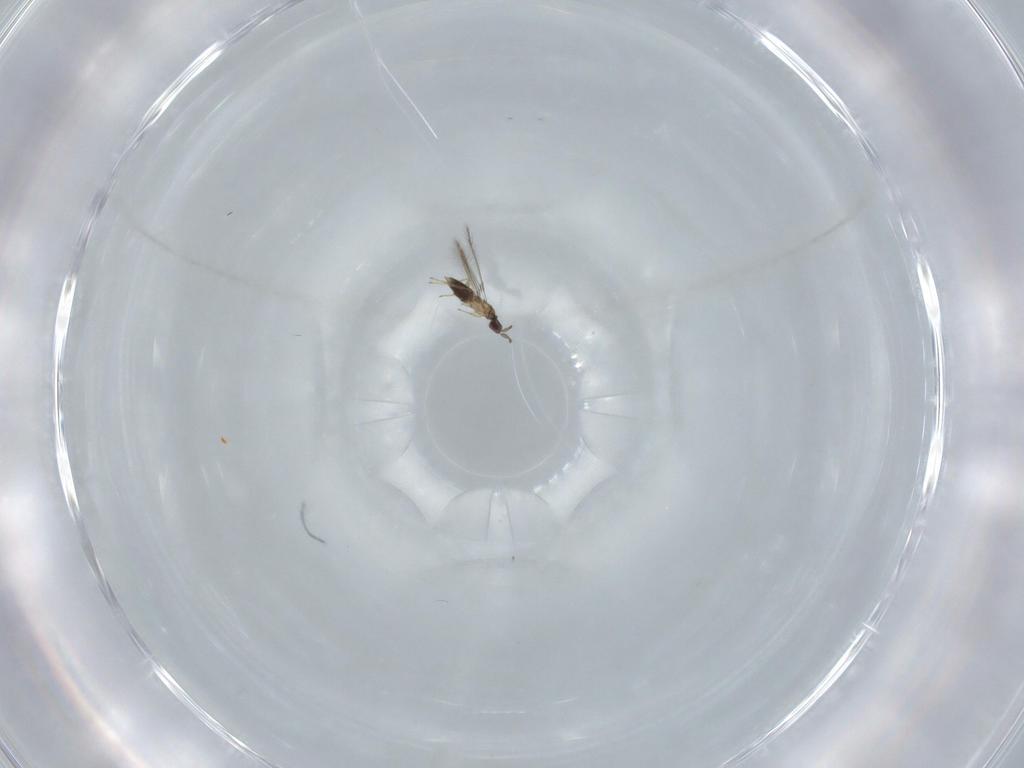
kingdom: Animalia
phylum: Arthropoda
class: Insecta
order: Hymenoptera
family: Mymaridae
